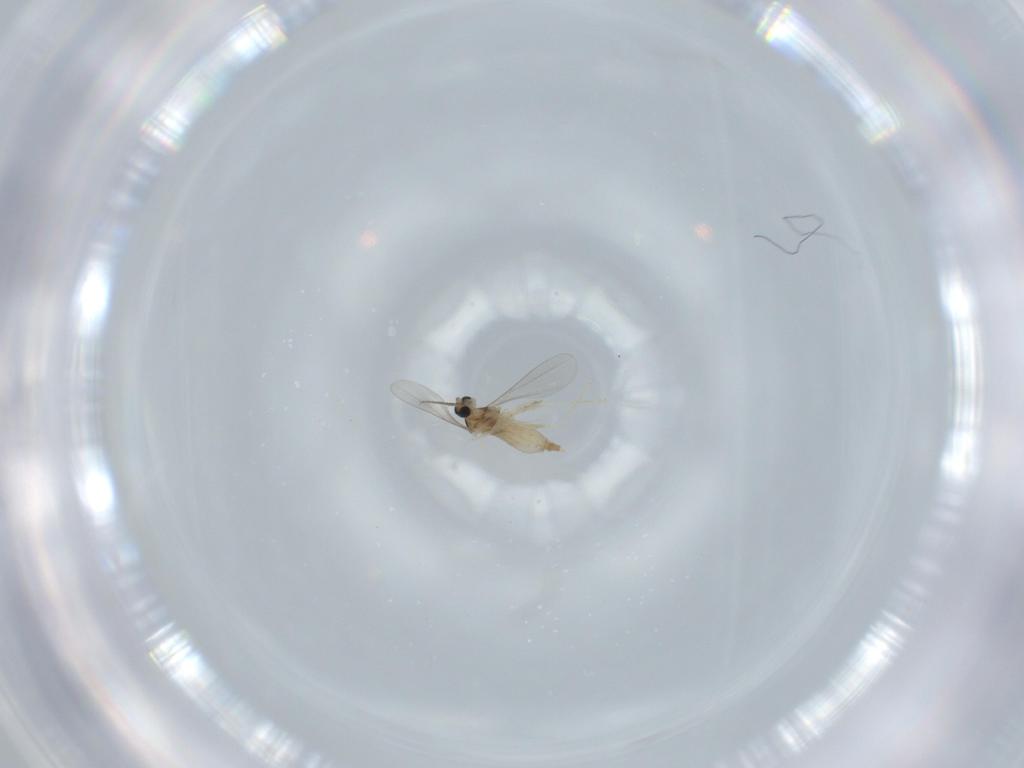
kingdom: Animalia
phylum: Arthropoda
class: Insecta
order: Diptera
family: Cecidomyiidae
